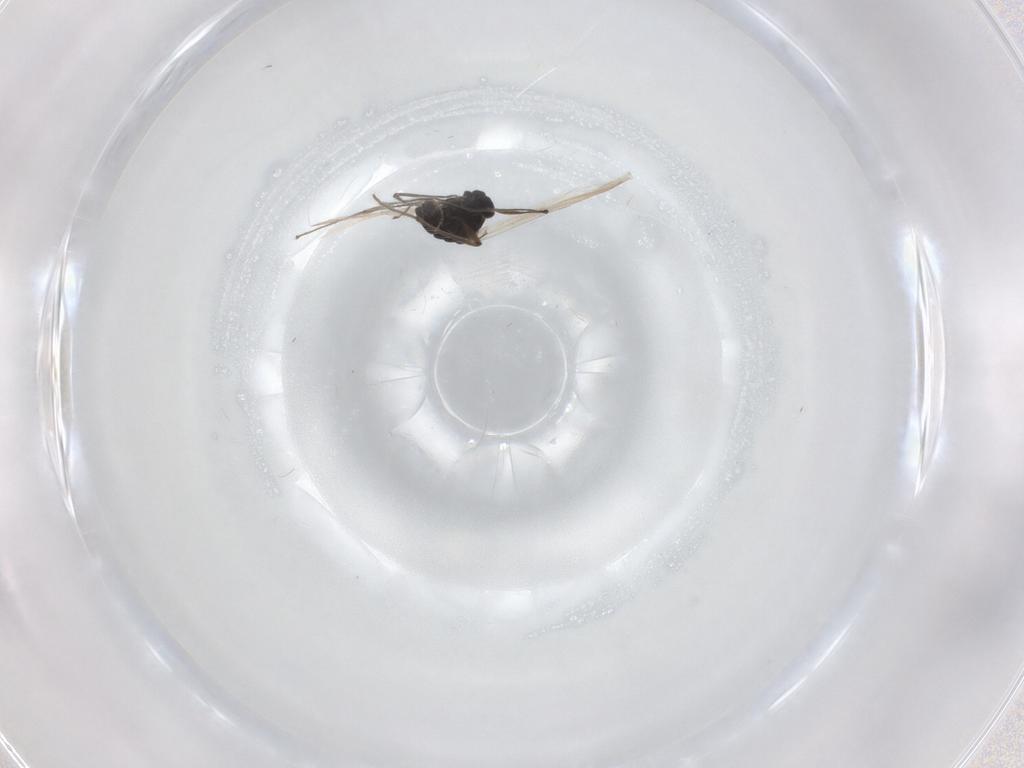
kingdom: Animalia
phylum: Arthropoda
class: Insecta
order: Diptera
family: Chironomidae
